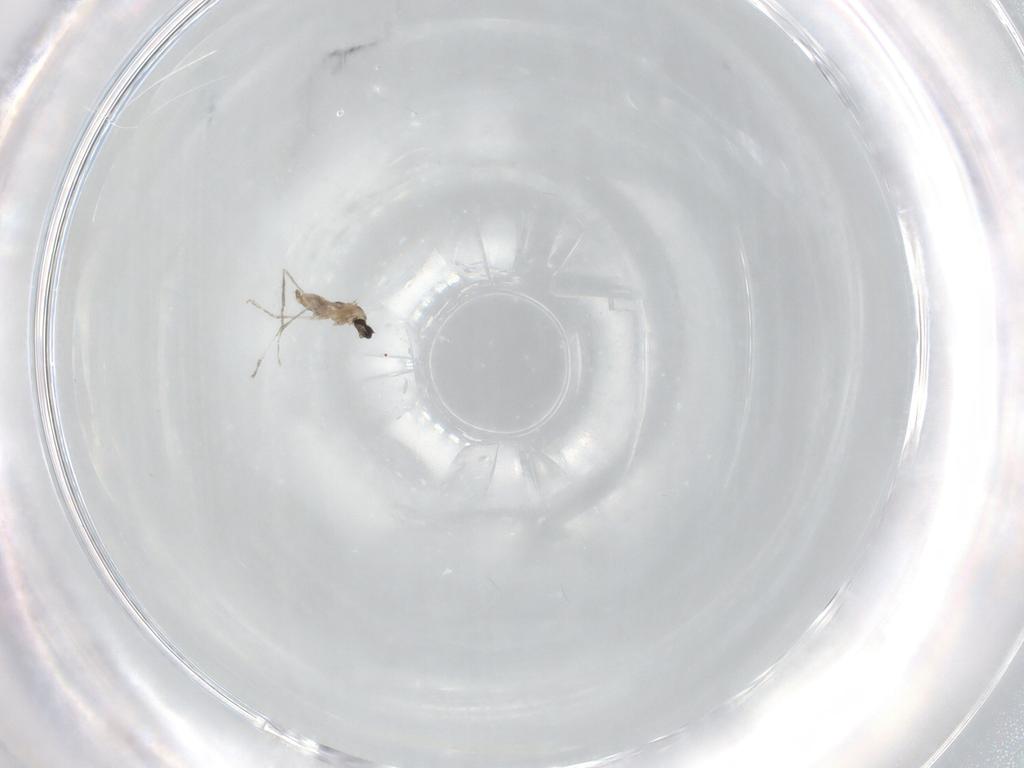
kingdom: Animalia
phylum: Arthropoda
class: Insecta
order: Diptera
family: Cecidomyiidae
